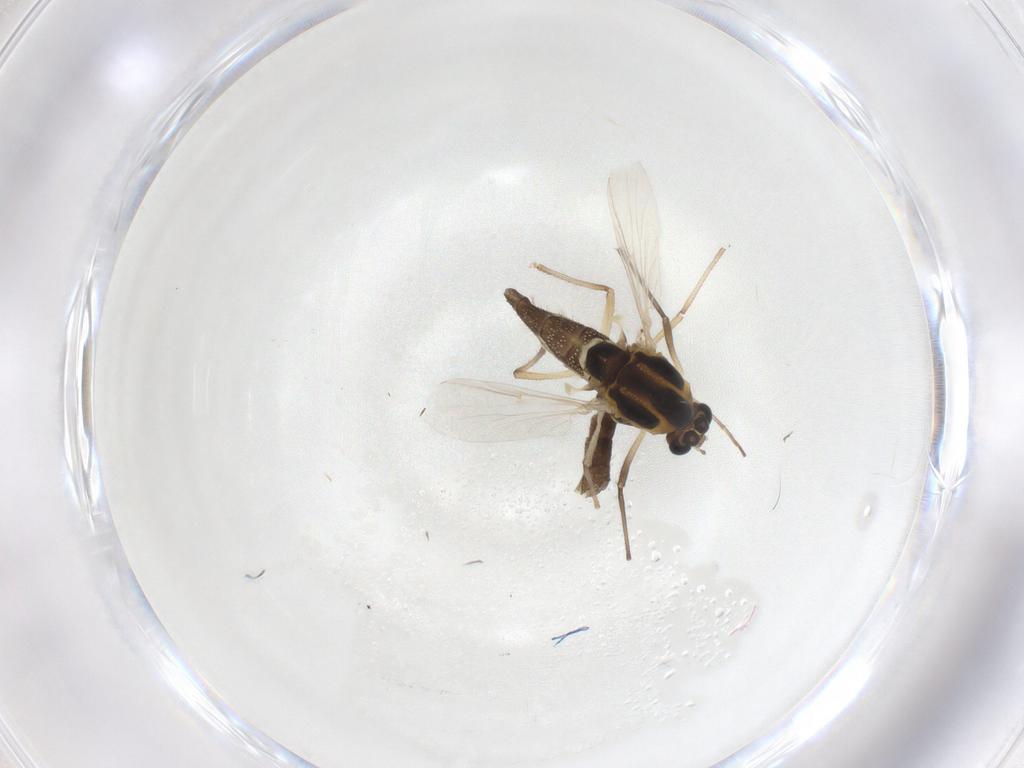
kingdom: Animalia
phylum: Arthropoda
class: Insecta
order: Diptera
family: Chironomidae
